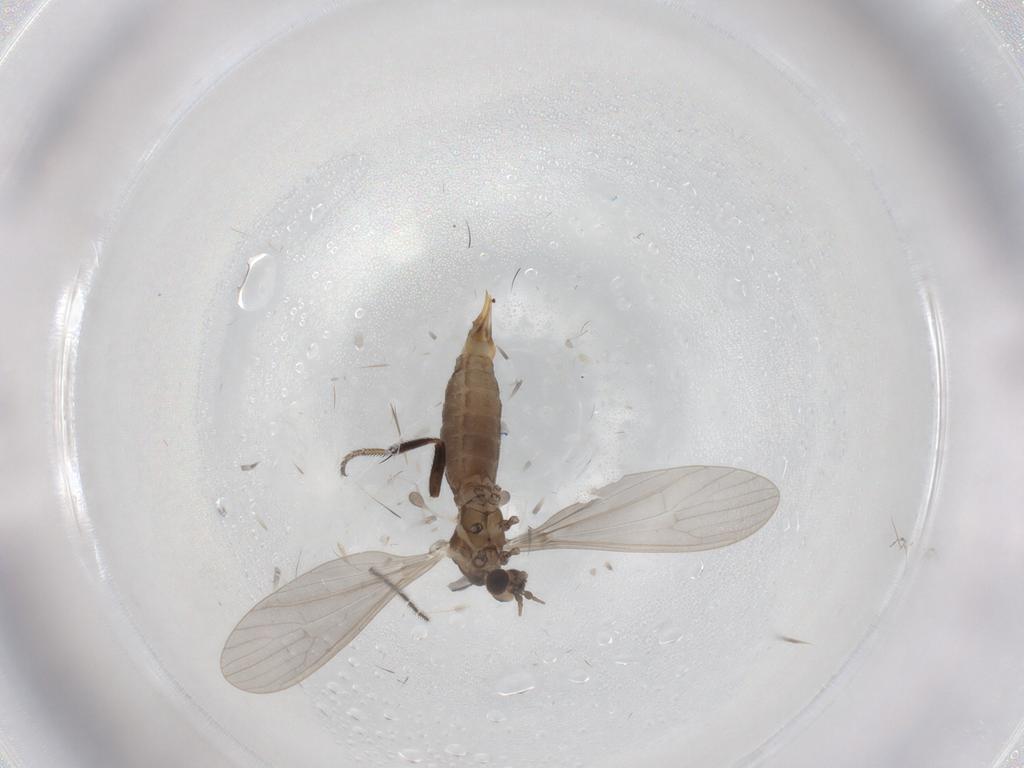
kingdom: Animalia
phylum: Arthropoda
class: Insecta
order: Diptera
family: Limoniidae
